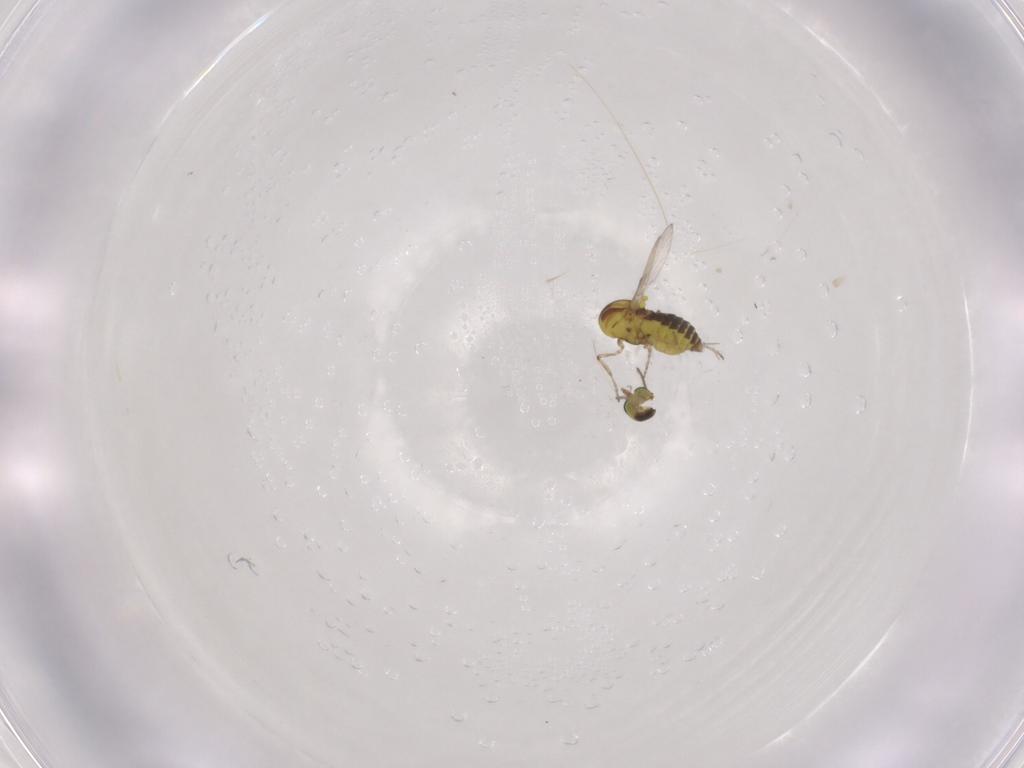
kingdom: Animalia
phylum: Arthropoda
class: Insecta
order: Diptera
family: Ceratopogonidae
